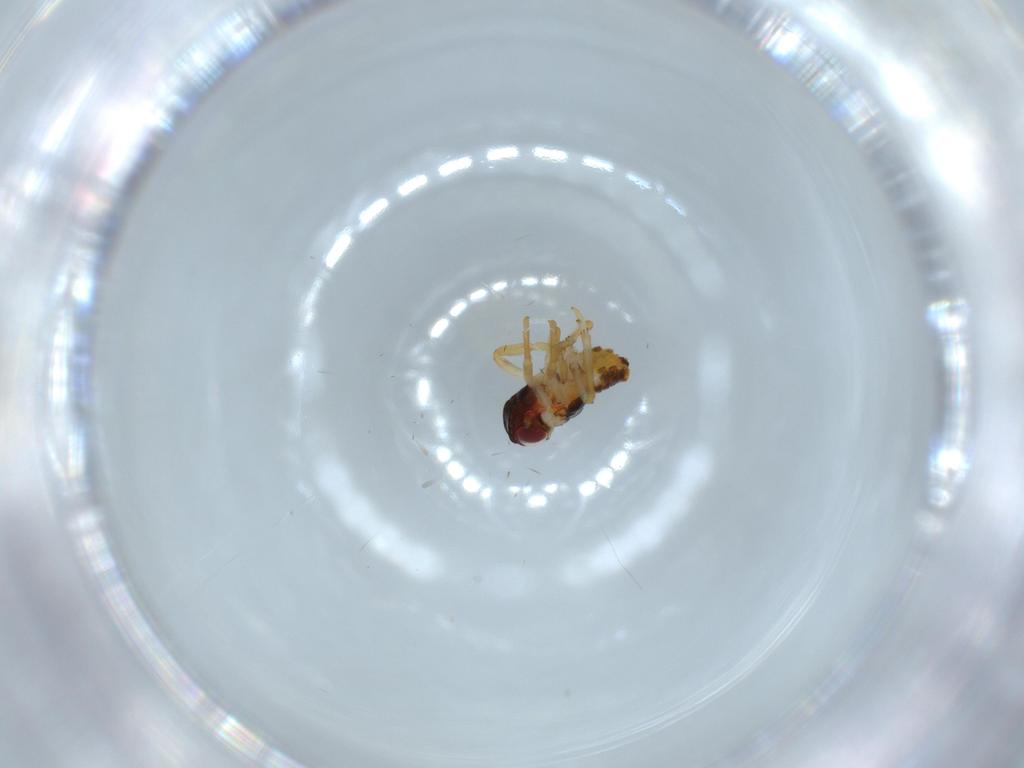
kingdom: Animalia
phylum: Arthropoda
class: Insecta
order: Hemiptera
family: Issidae
